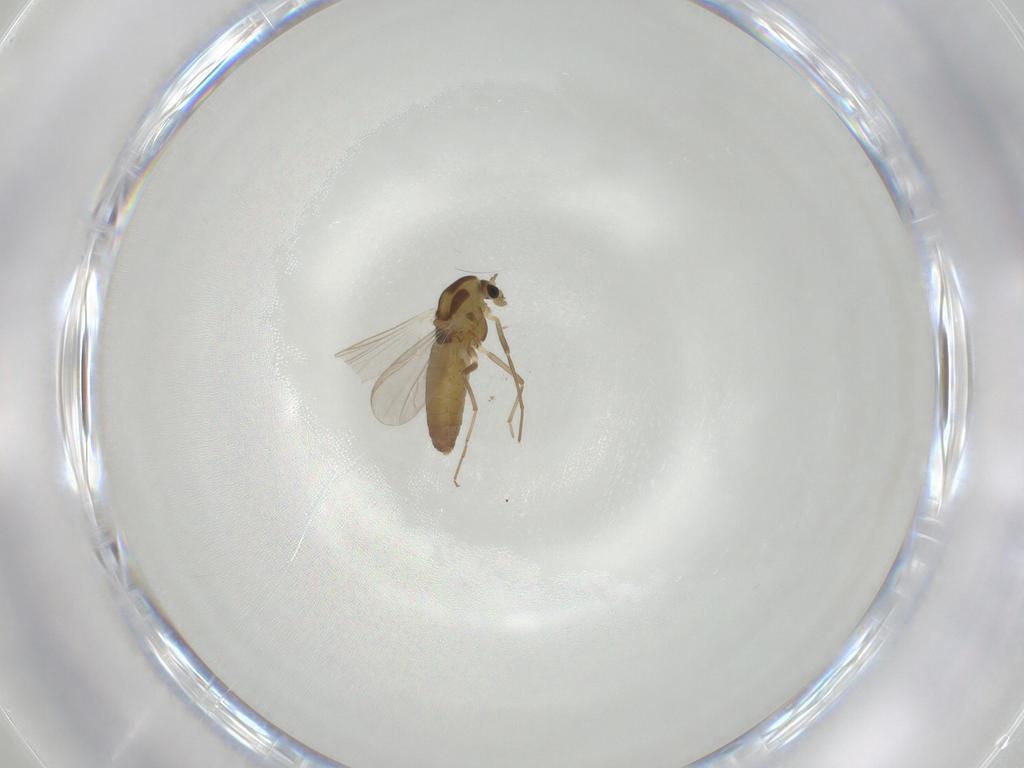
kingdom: Animalia
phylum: Arthropoda
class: Insecta
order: Diptera
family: Chironomidae
